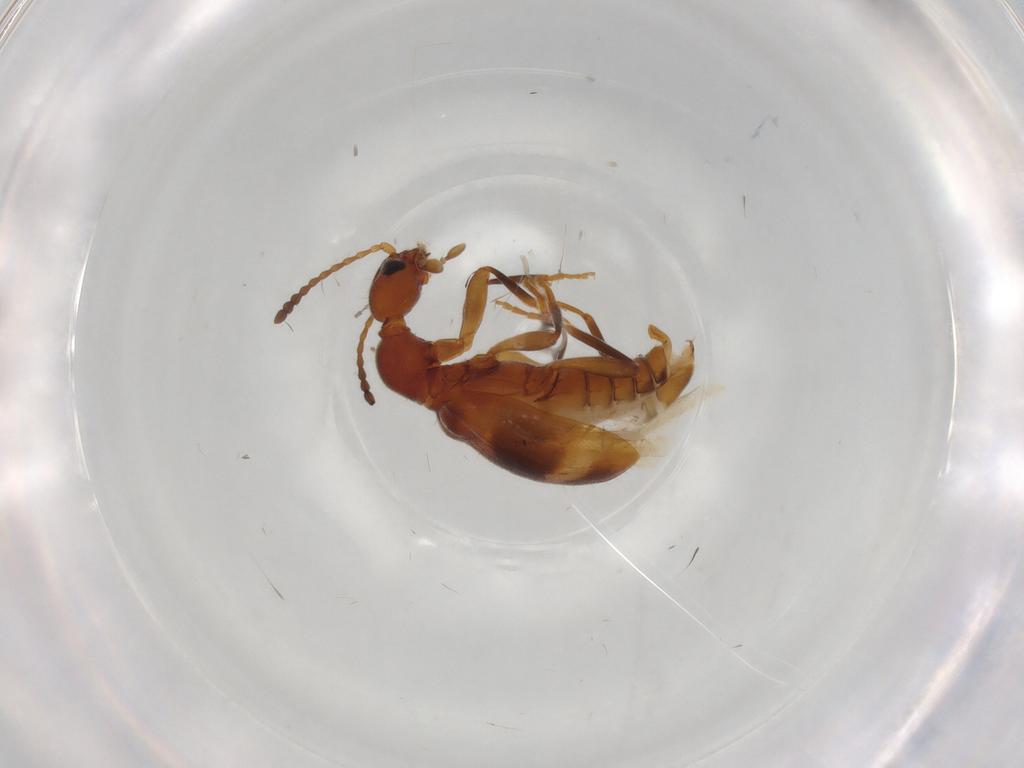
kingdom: Animalia
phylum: Arthropoda
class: Insecta
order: Coleoptera
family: Anthicidae
